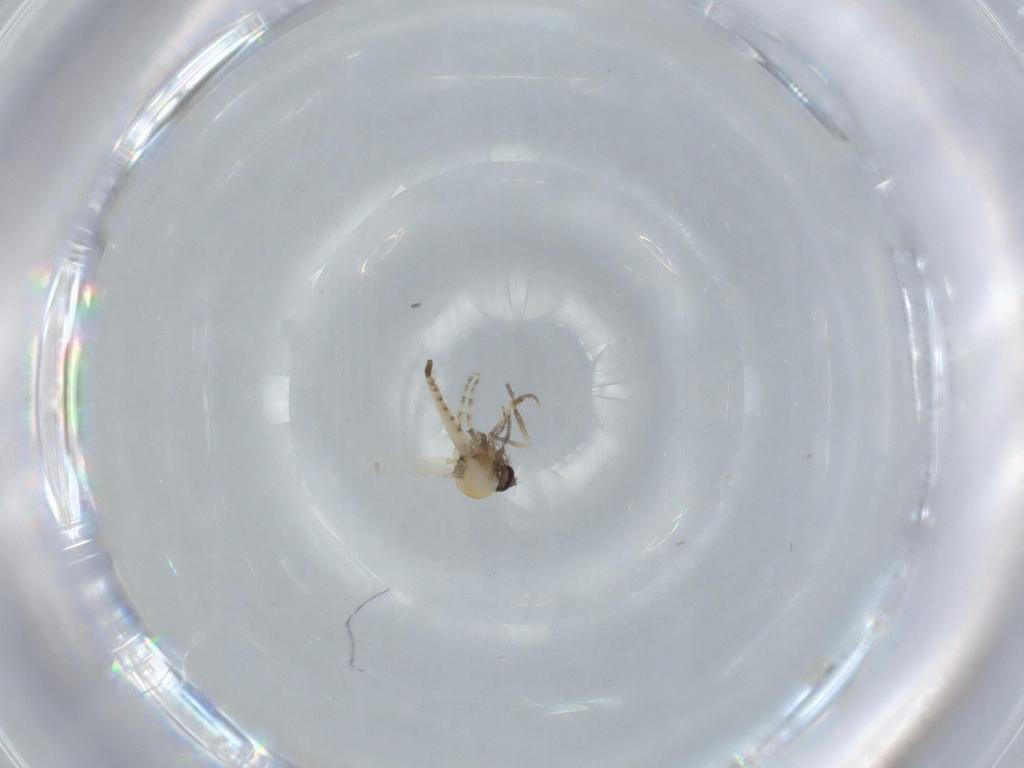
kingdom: Animalia
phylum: Arthropoda
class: Insecta
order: Diptera
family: Ceratopogonidae
